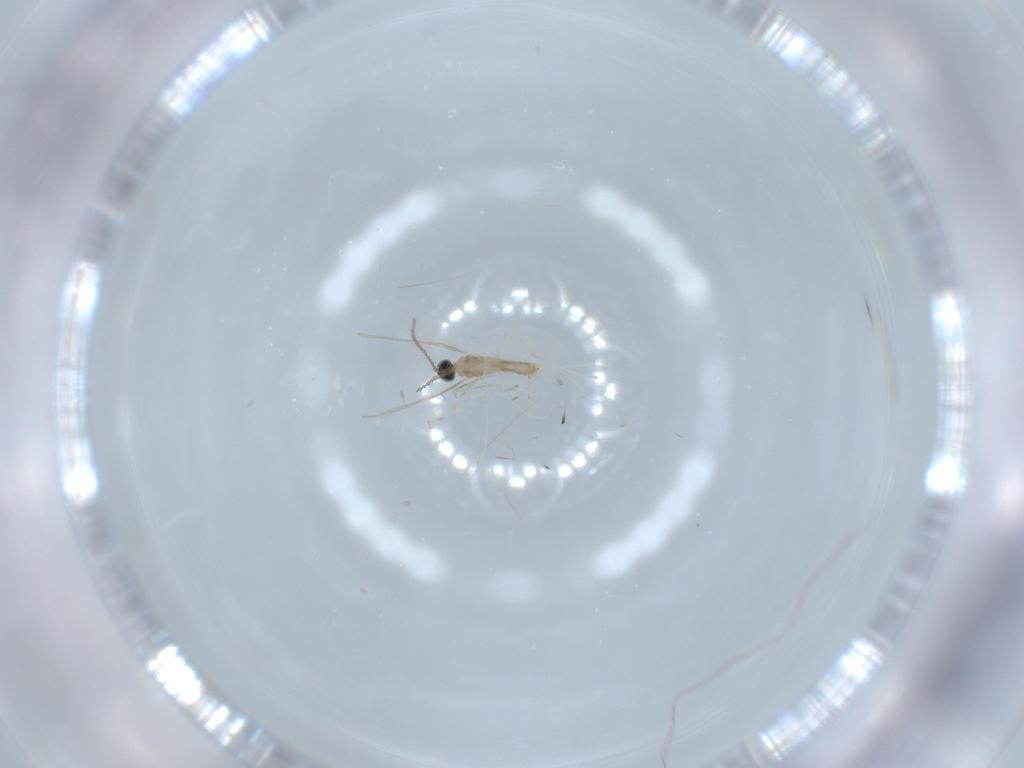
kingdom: Animalia
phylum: Arthropoda
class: Insecta
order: Diptera
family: Cecidomyiidae
